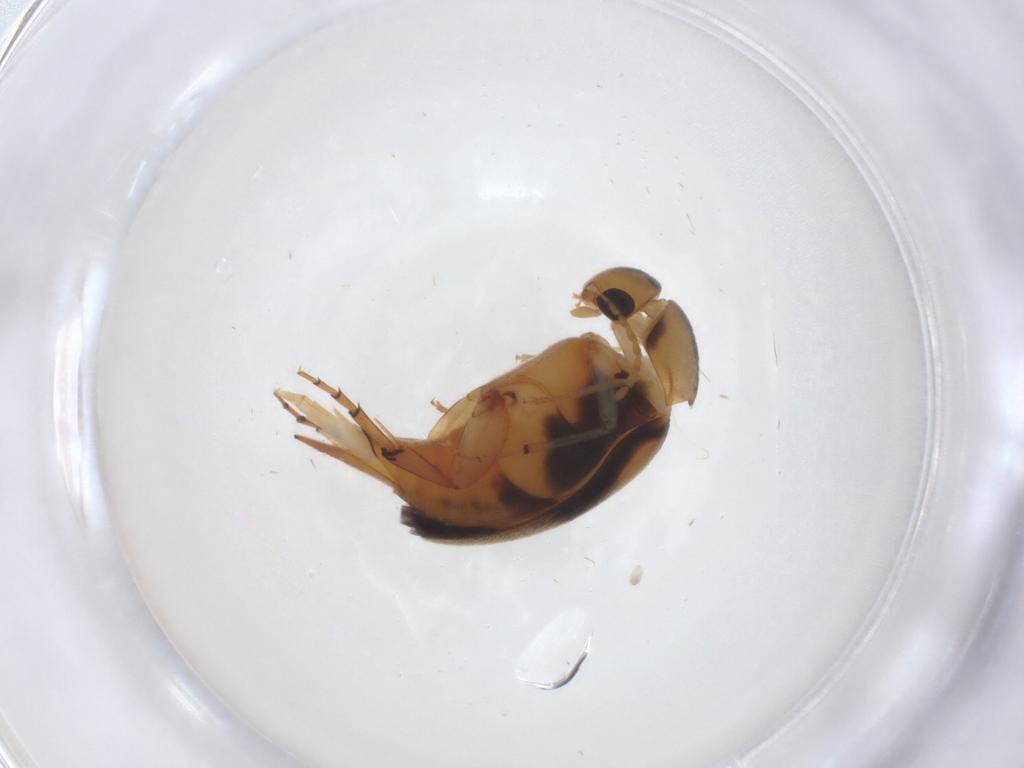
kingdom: Animalia
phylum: Arthropoda
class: Insecta
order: Coleoptera
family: Mordellidae
